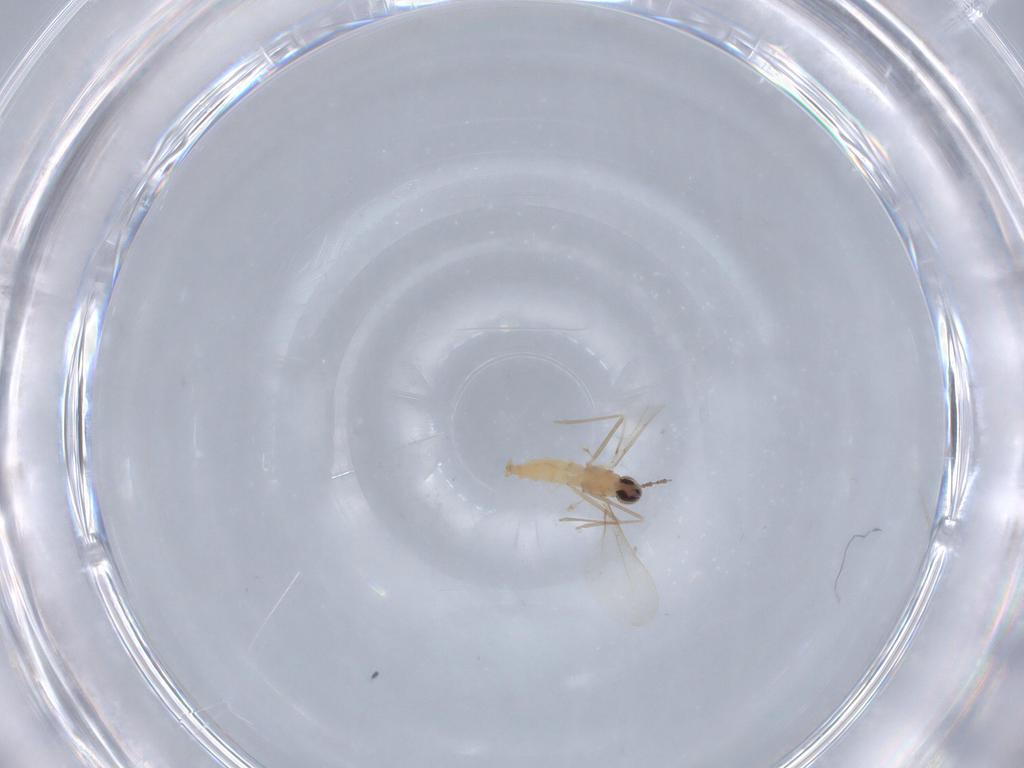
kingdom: Animalia
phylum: Arthropoda
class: Insecta
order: Diptera
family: Cecidomyiidae
